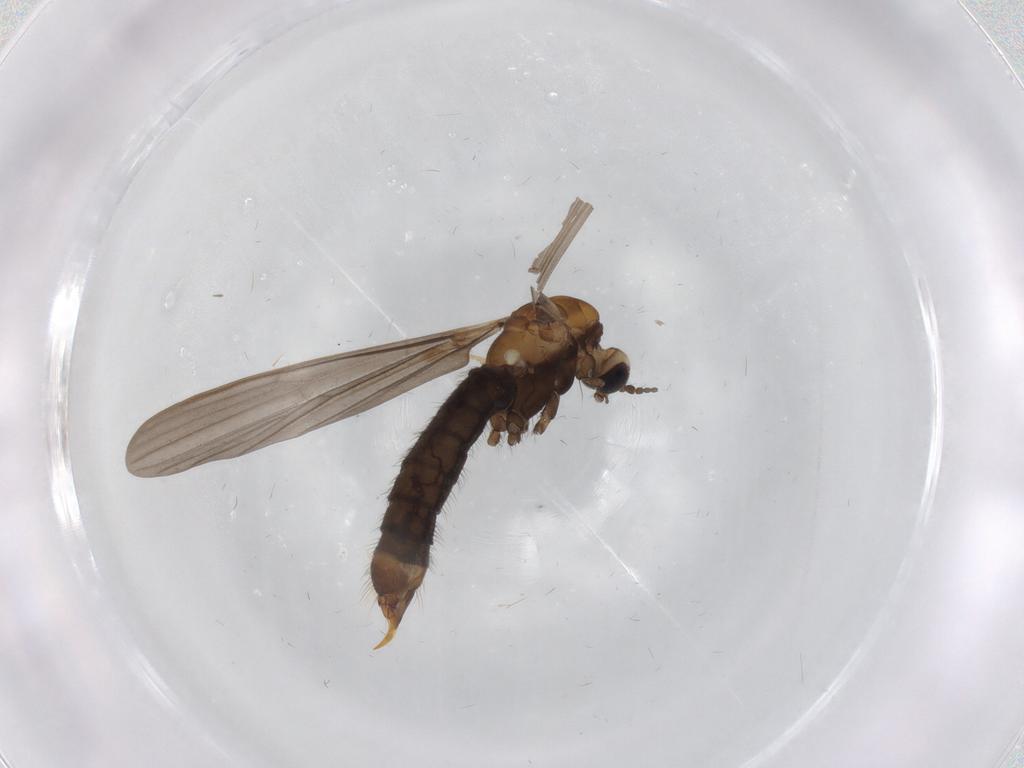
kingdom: Animalia
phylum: Arthropoda
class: Insecta
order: Diptera
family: Limoniidae
